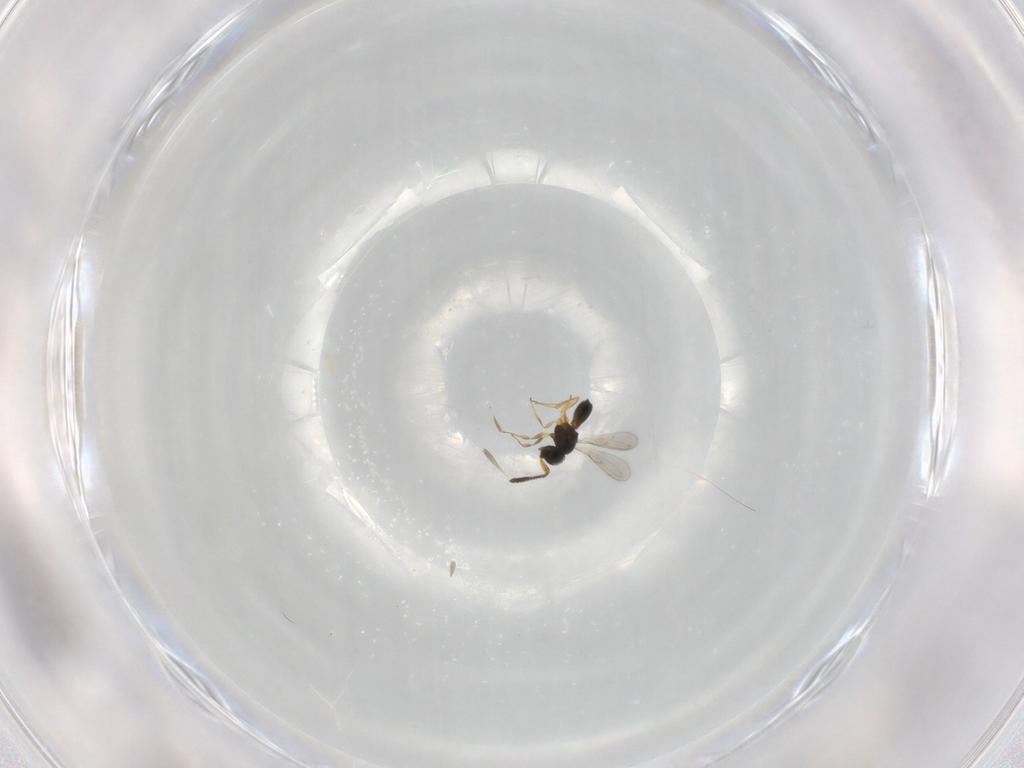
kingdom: Animalia
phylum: Arthropoda
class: Insecta
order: Hymenoptera
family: Scelionidae
